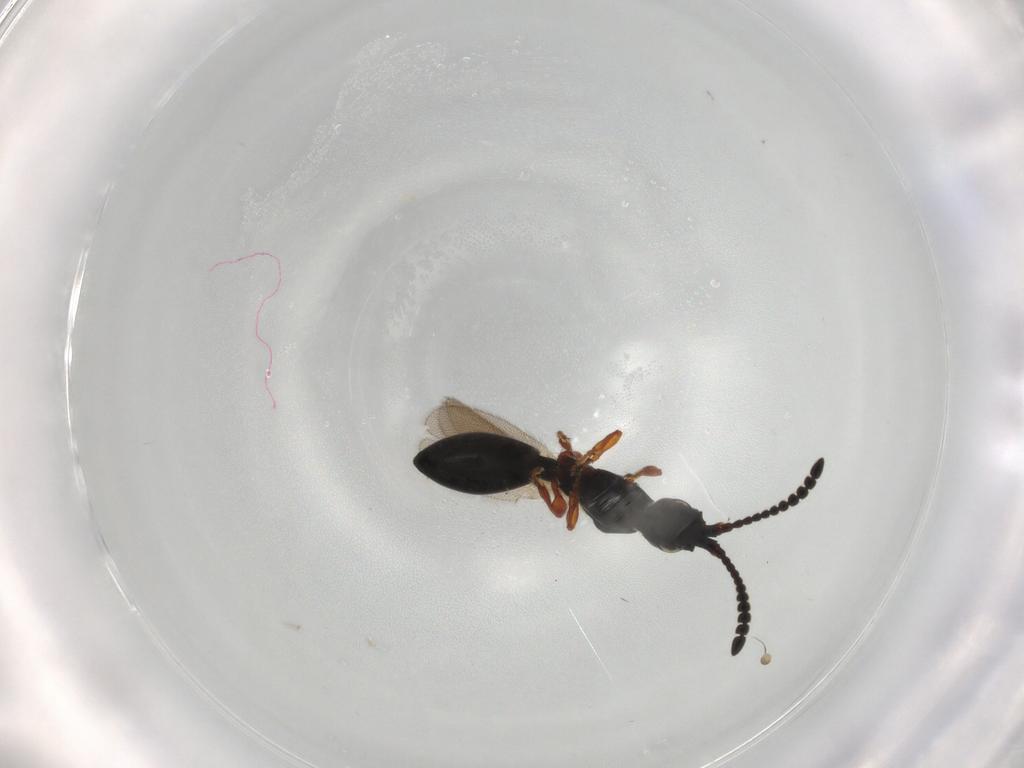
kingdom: Animalia
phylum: Arthropoda
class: Insecta
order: Hymenoptera
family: Diapriidae
